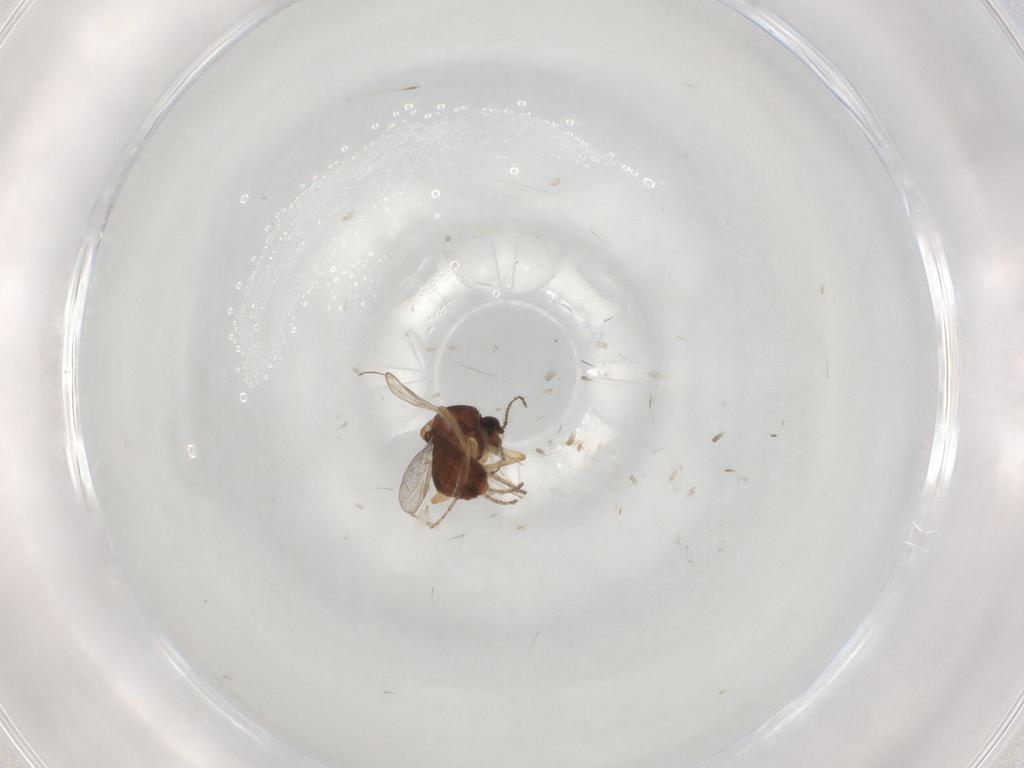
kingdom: Animalia
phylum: Arthropoda
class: Insecta
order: Diptera
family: Ceratopogonidae
